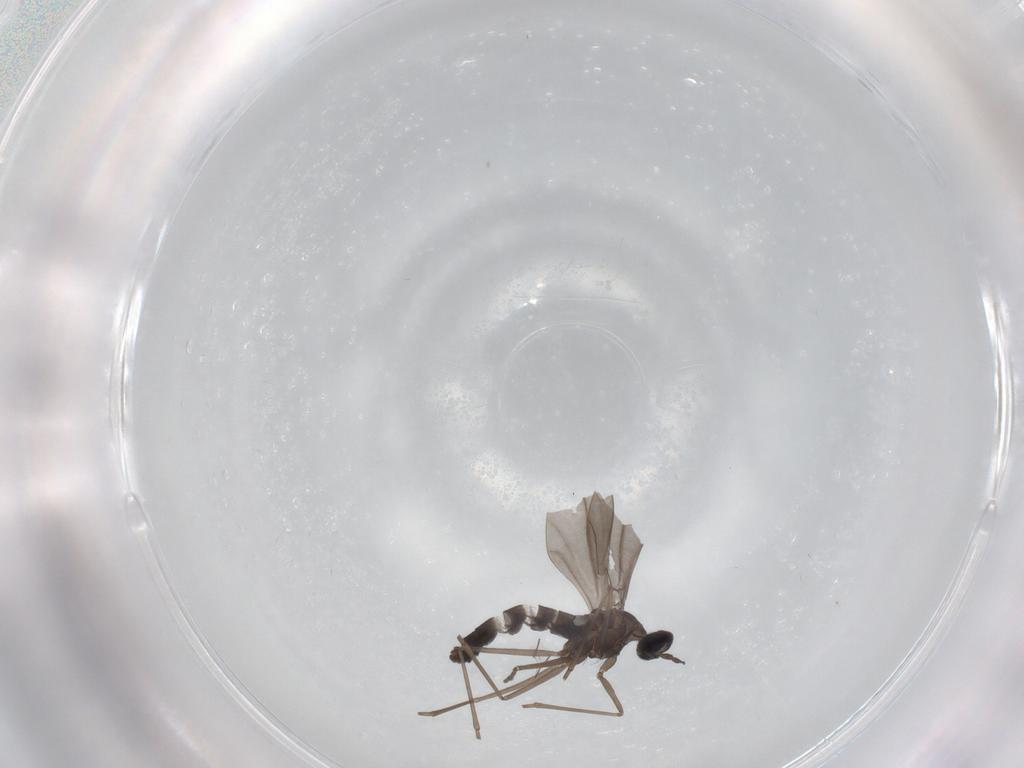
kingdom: Animalia
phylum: Arthropoda
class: Insecta
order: Diptera
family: Cecidomyiidae
